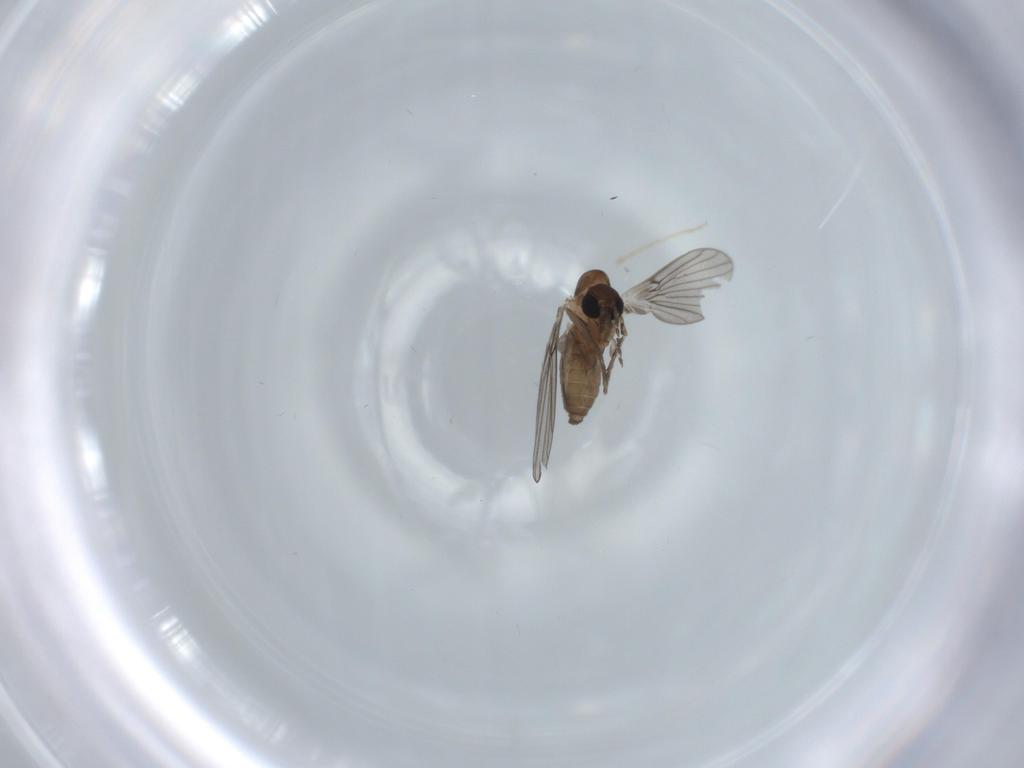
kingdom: Animalia
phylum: Arthropoda
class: Insecta
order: Diptera
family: Psychodidae
